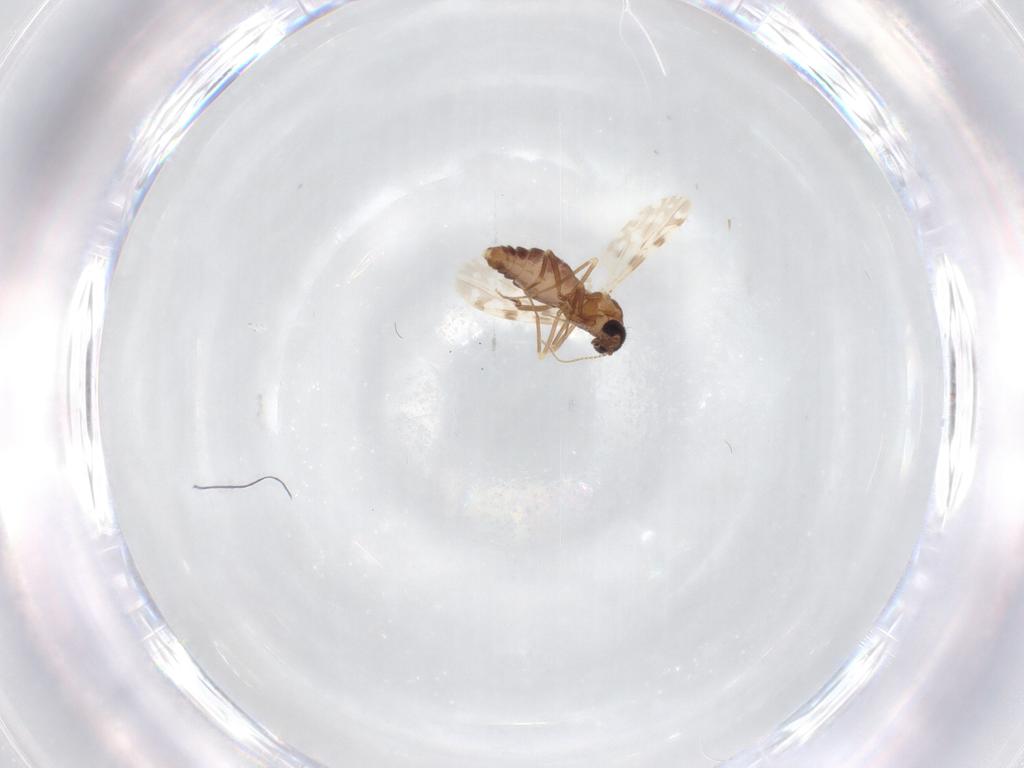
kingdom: Animalia
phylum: Arthropoda
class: Insecta
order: Diptera
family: Ceratopogonidae
